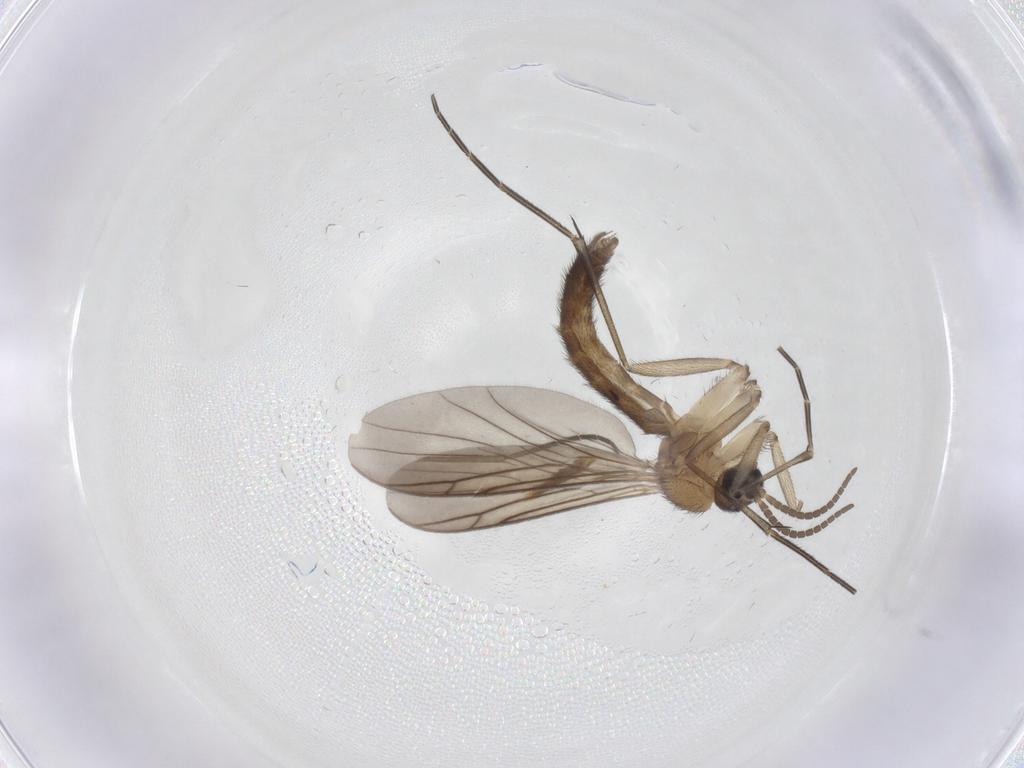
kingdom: Animalia
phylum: Arthropoda
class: Insecta
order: Diptera
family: Keroplatidae
